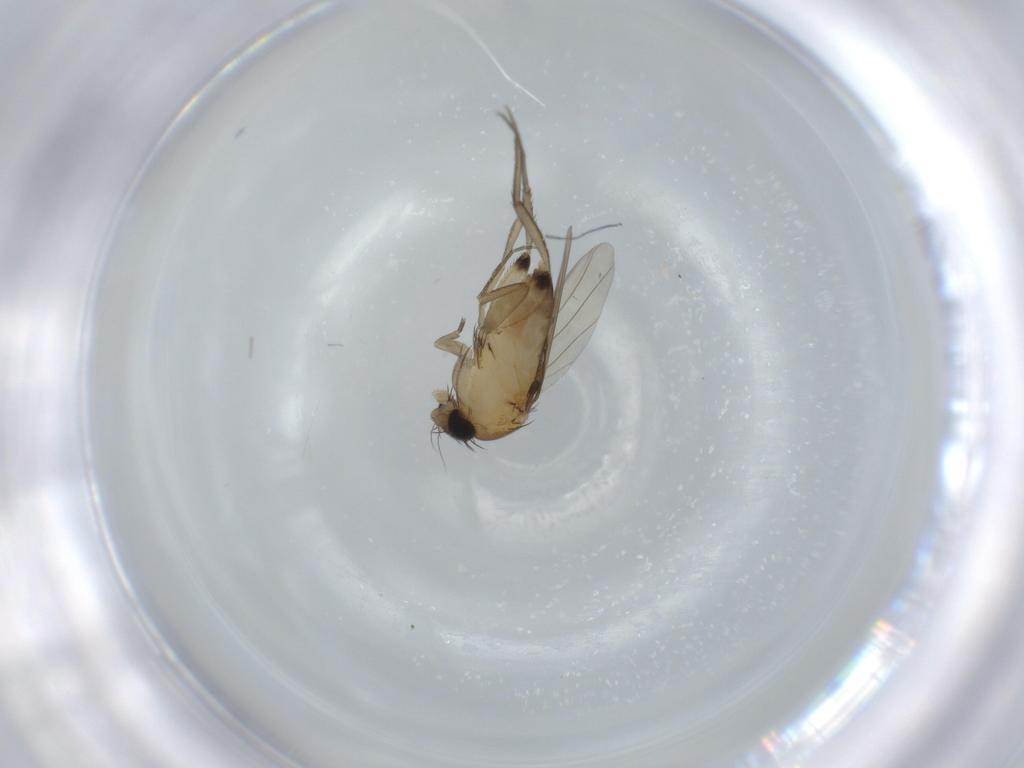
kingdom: Animalia
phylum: Arthropoda
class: Insecta
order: Diptera
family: Phoridae
